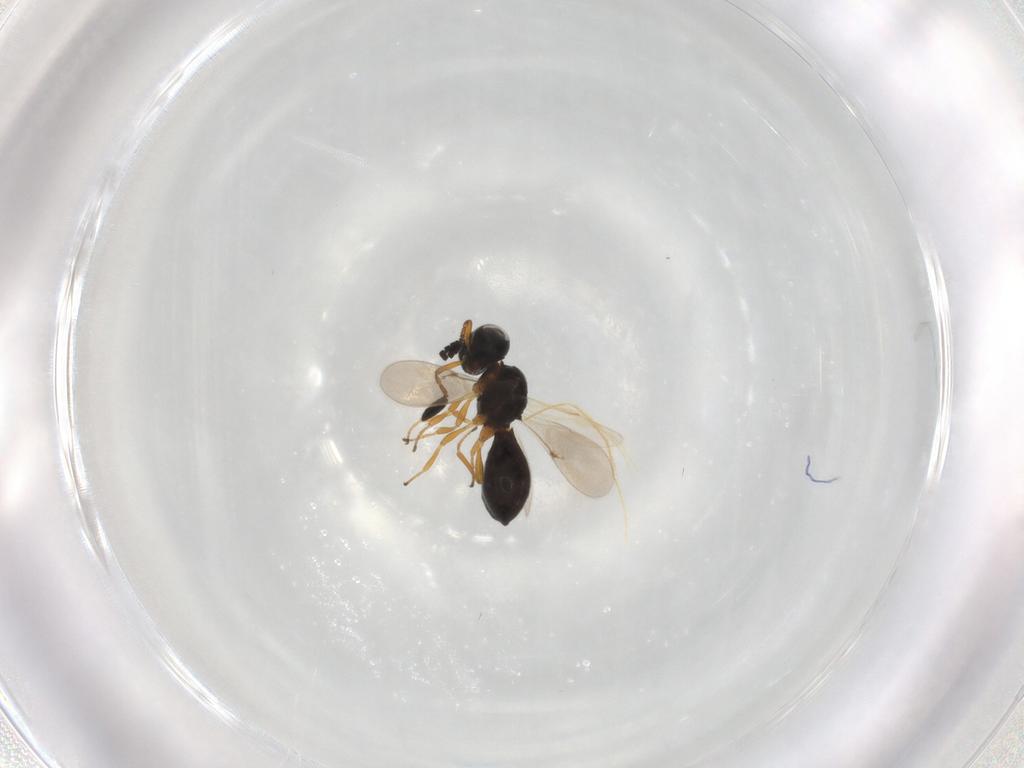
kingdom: Animalia
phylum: Arthropoda
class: Insecta
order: Hymenoptera
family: Scelionidae
